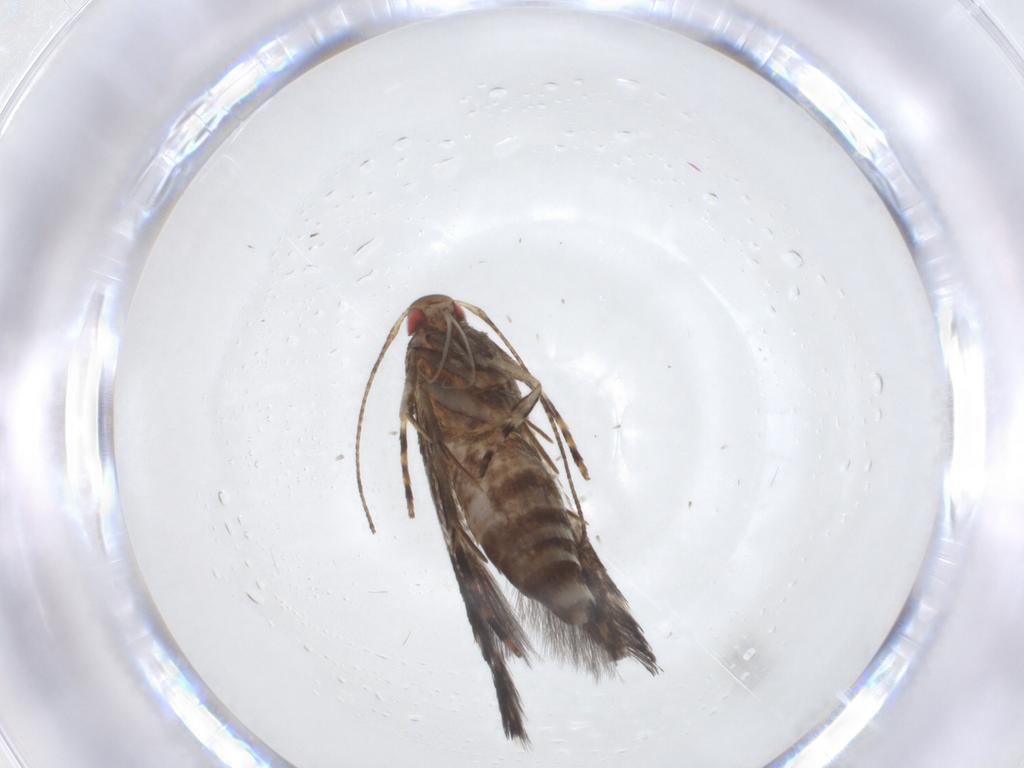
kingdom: Animalia
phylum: Arthropoda
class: Insecta
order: Lepidoptera
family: Cosmopterigidae
